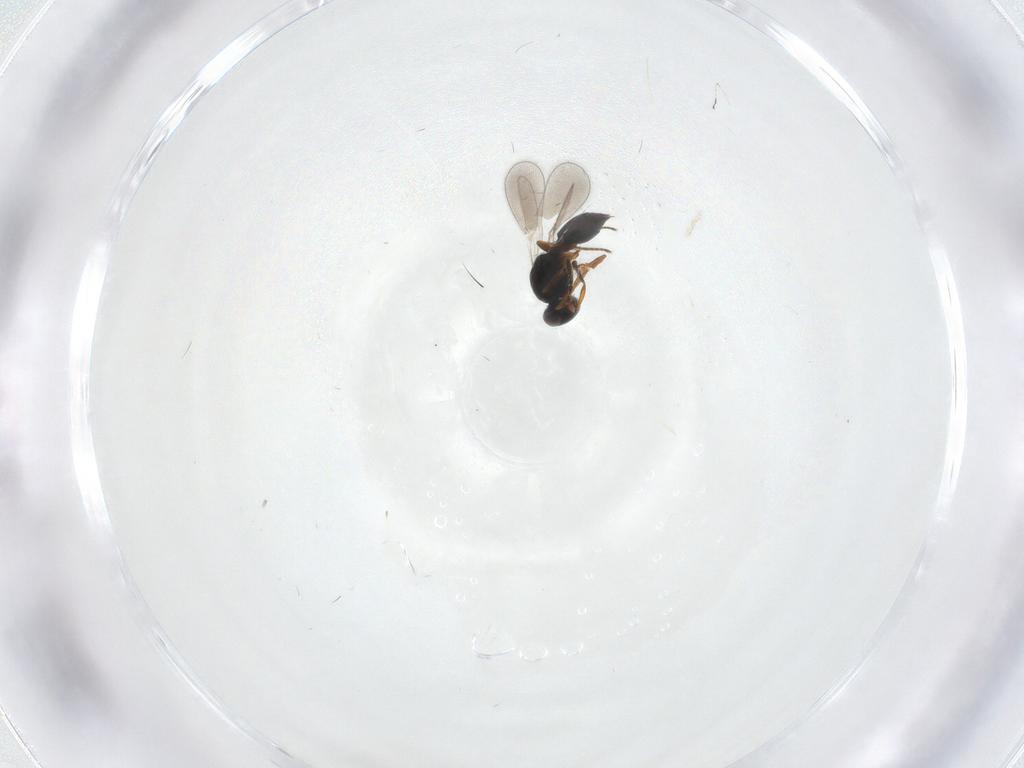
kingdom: Animalia
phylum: Arthropoda
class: Insecta
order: Hymenoptera
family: Platygastridae
